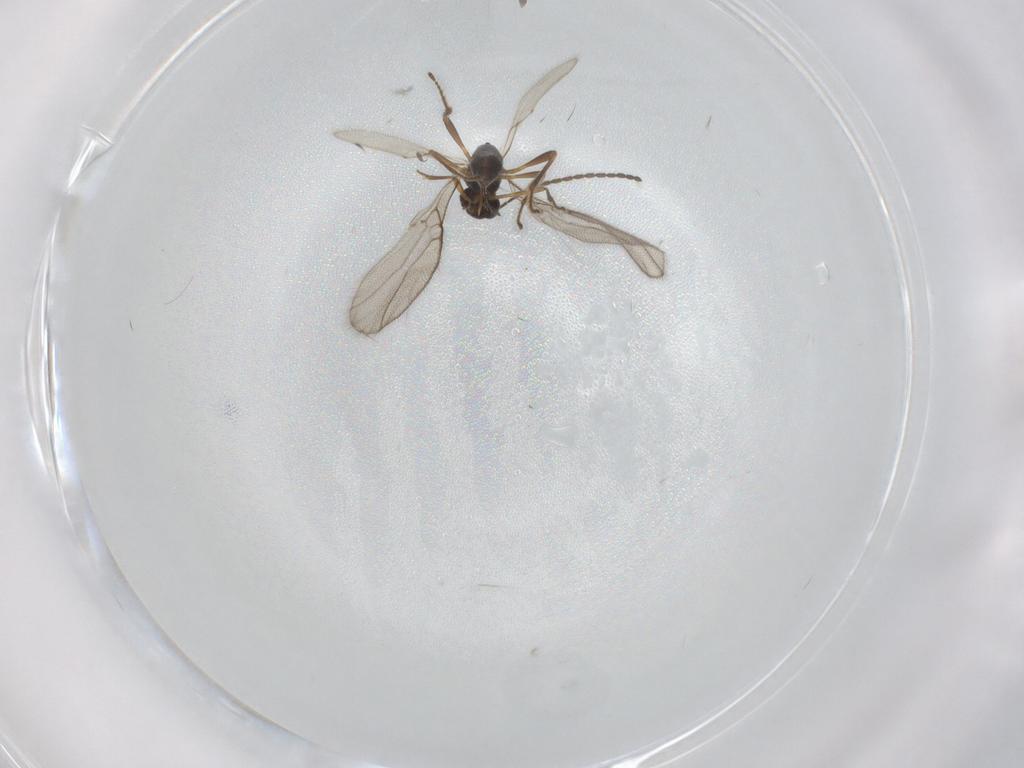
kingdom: Animalia
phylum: Arthropoda
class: Insecta
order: Hymenoptera
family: Braconidae
